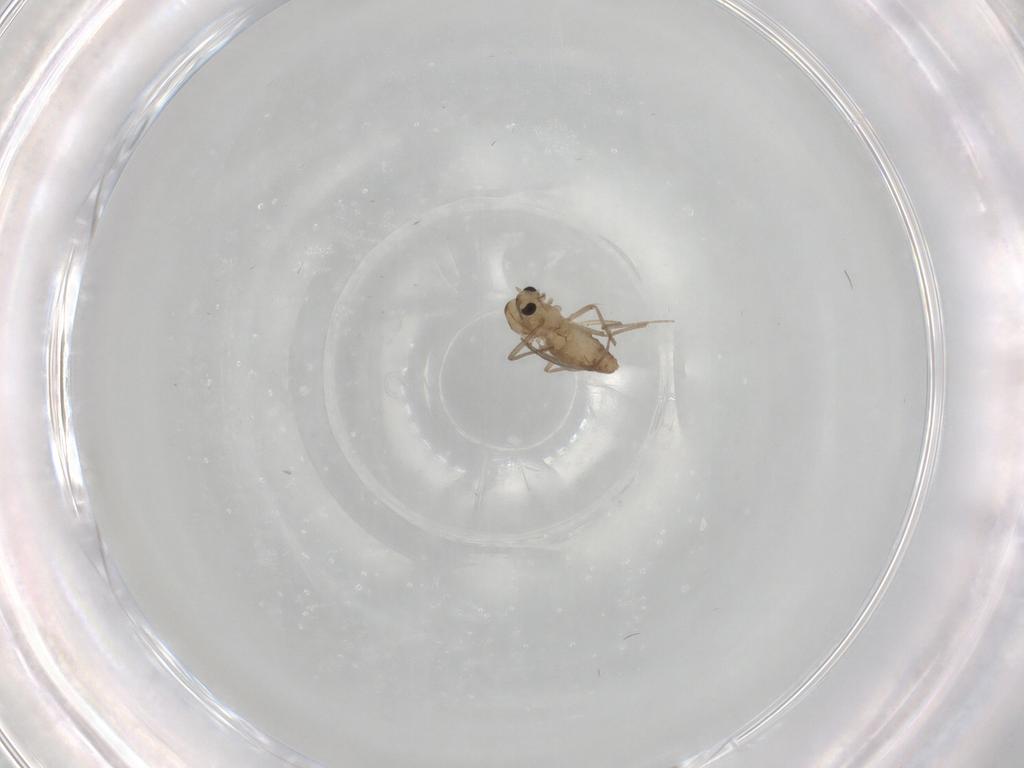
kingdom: Animalia
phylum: Arthropoda
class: Insecta
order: Diptera
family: Chironomidae
